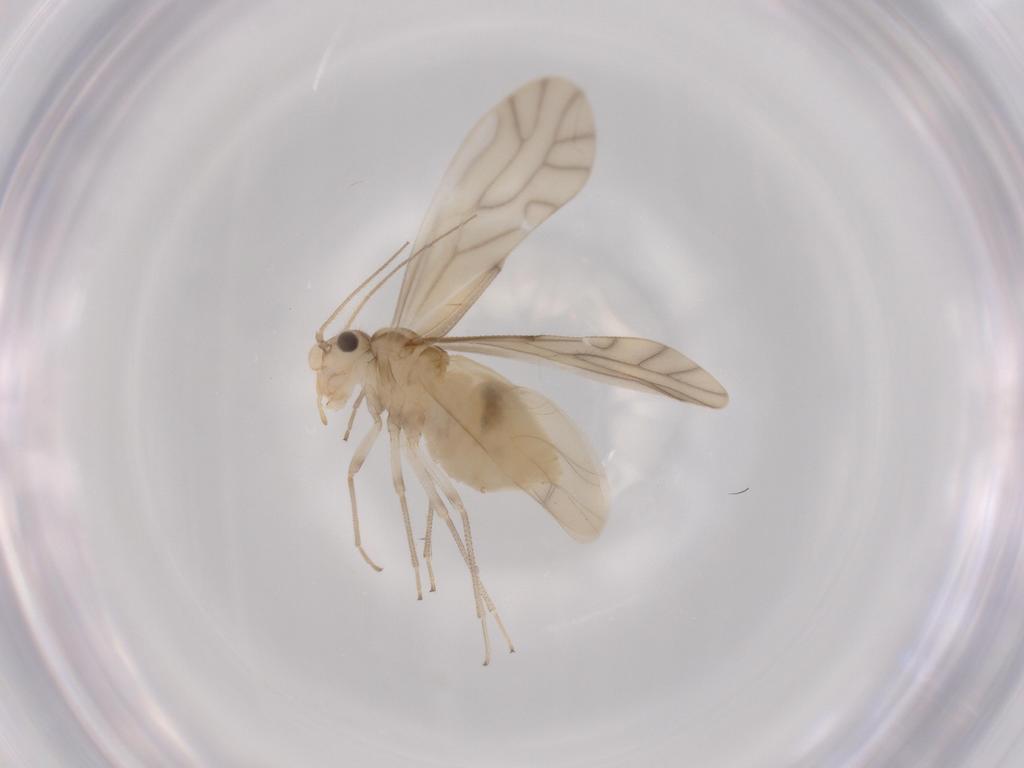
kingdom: Animalia
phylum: Arthropoda
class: Insecta
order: Psocodea
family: Caeciliusidae
